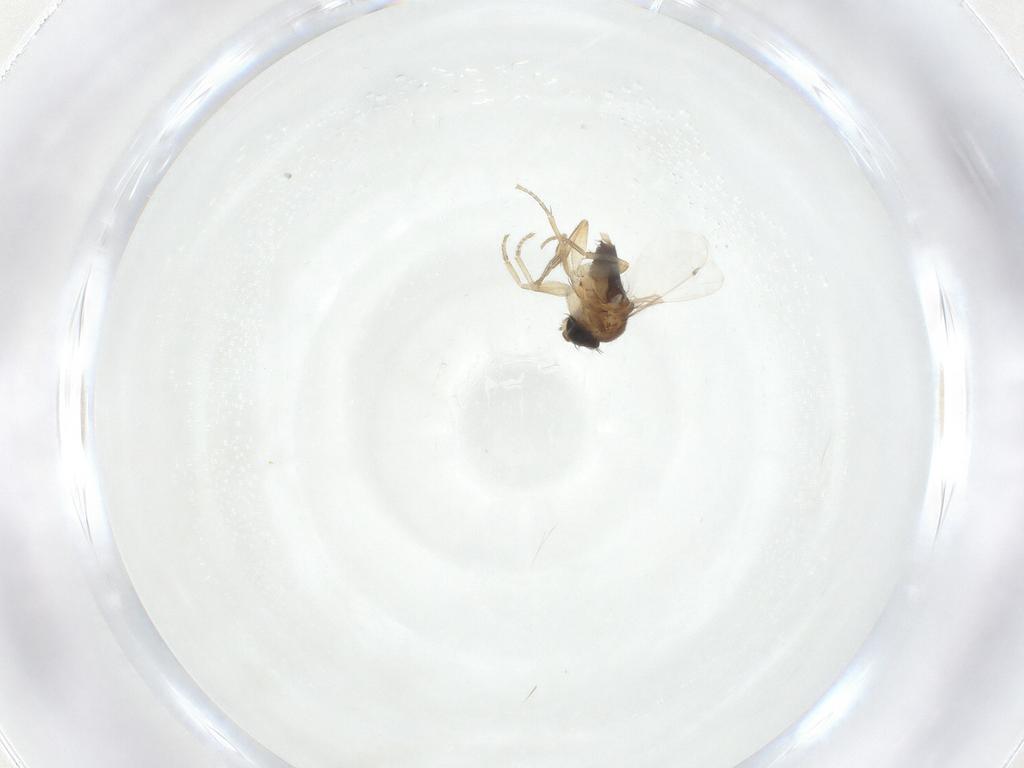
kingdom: Animalia
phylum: Arthropoda
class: Insecta
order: Diptera
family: Phoridae
